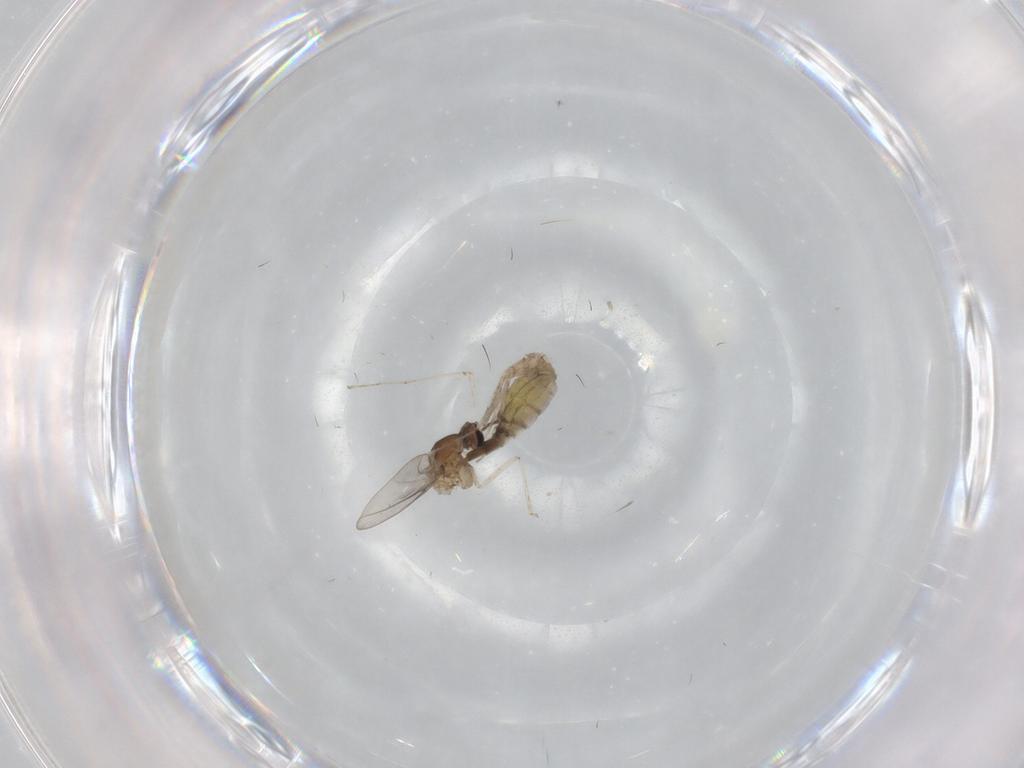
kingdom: Animalia
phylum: Arthropoda
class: Insecta
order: Diptera
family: Cecidomyiidae
